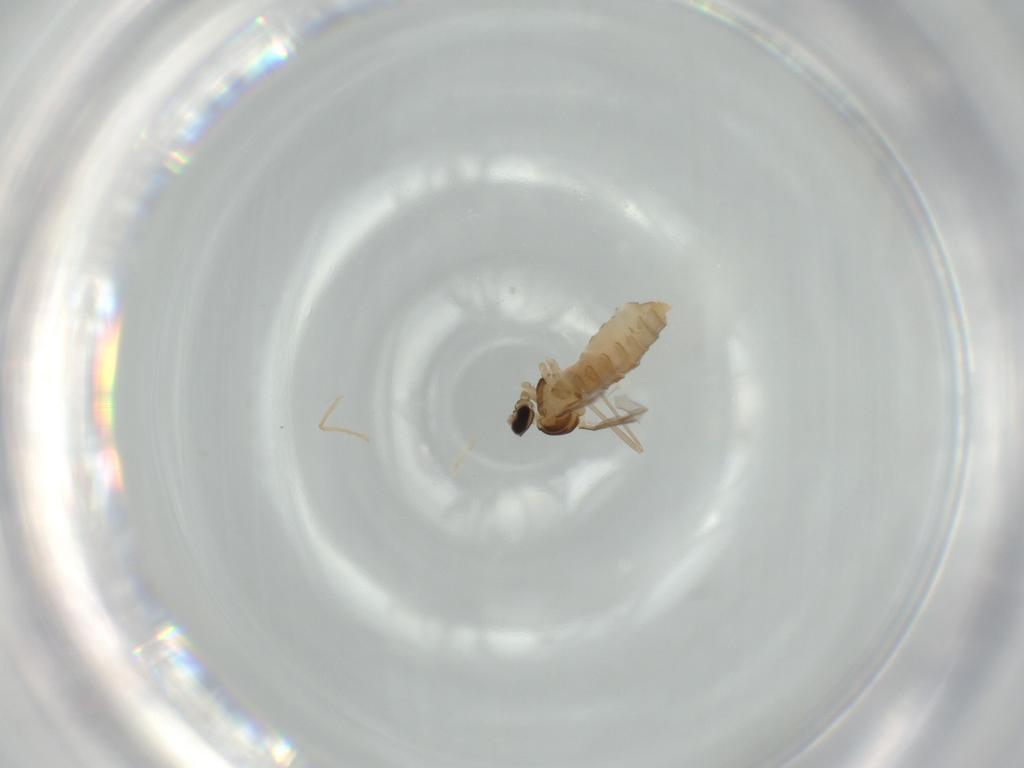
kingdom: Animalia
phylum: Arthropoda
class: Insecta
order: Diptera
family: Cecidomyiidae
